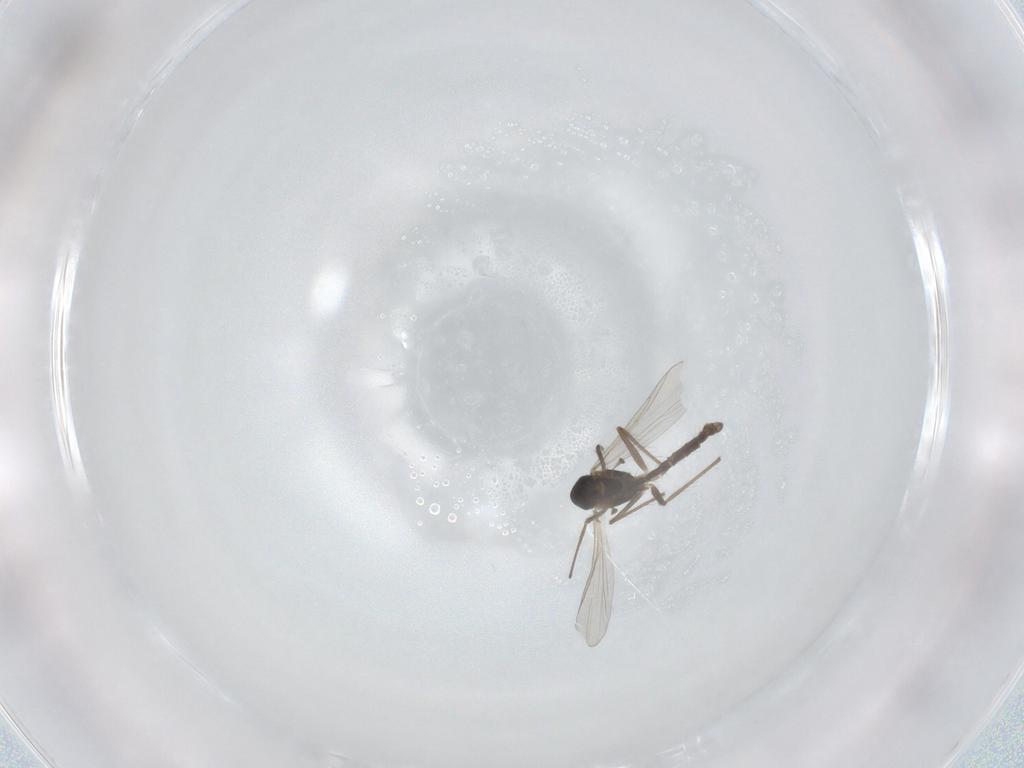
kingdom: Animalia
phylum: Arthropoda
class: Insecta
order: Diptera
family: Chironomidae
